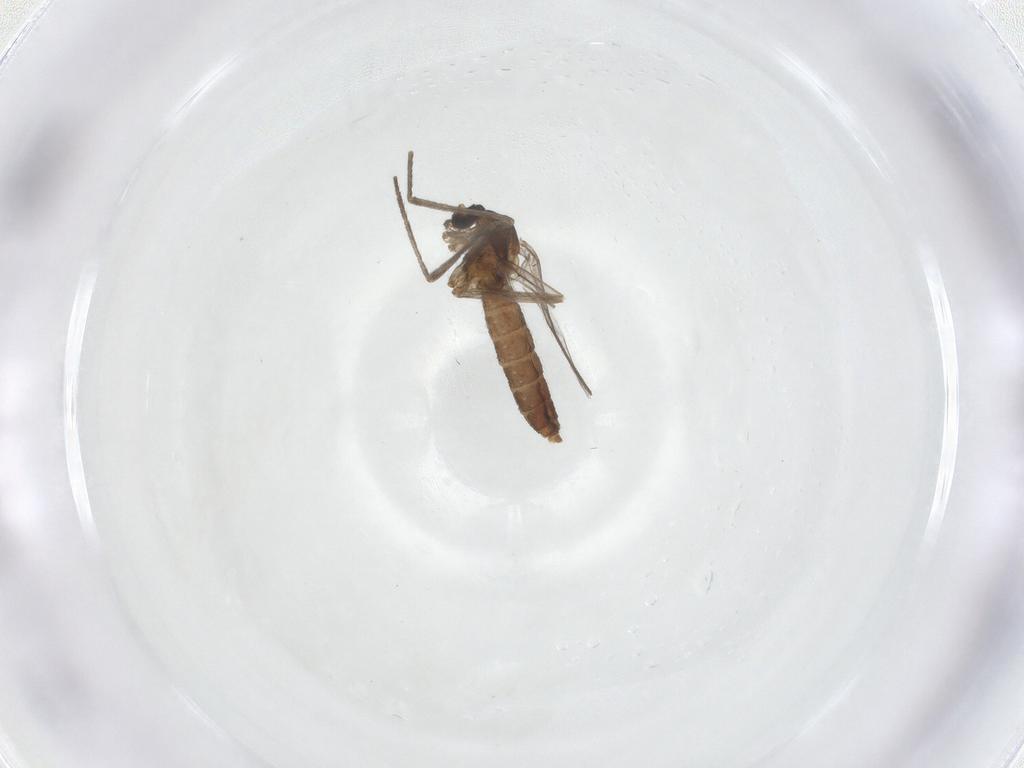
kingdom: Animalia
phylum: Arthropoda
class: Insecta
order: Diptera
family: Cecidomyiidae
